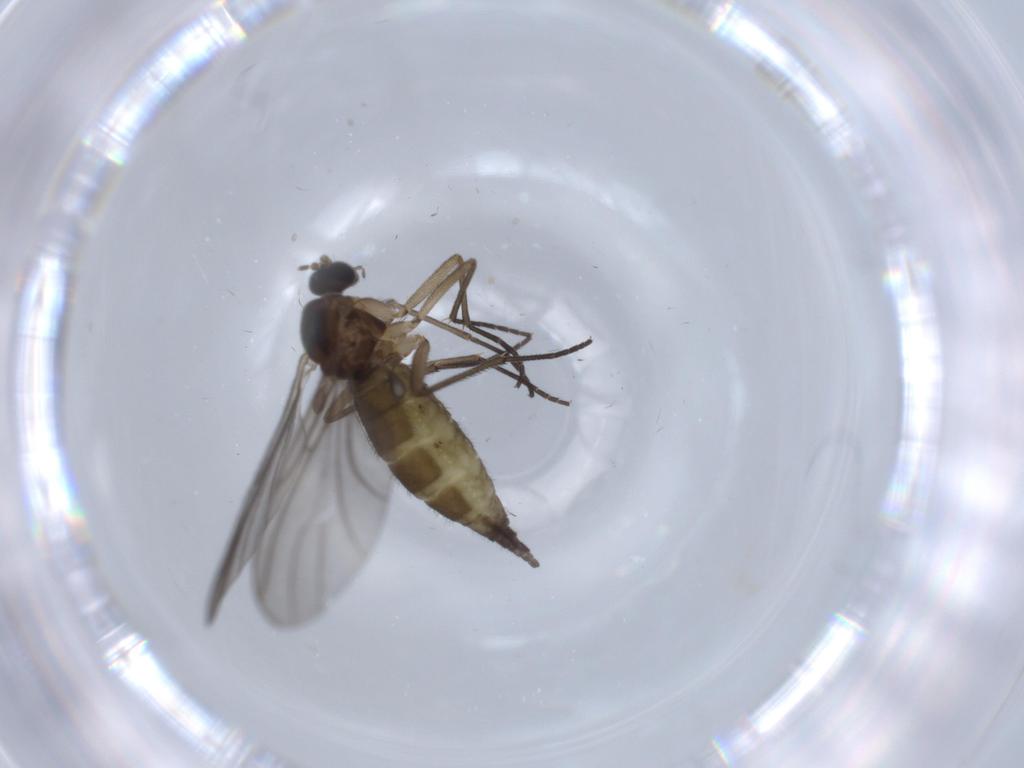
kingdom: Animalia
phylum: Arthropoda
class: Insecta
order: Diptera
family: Sciaridae
